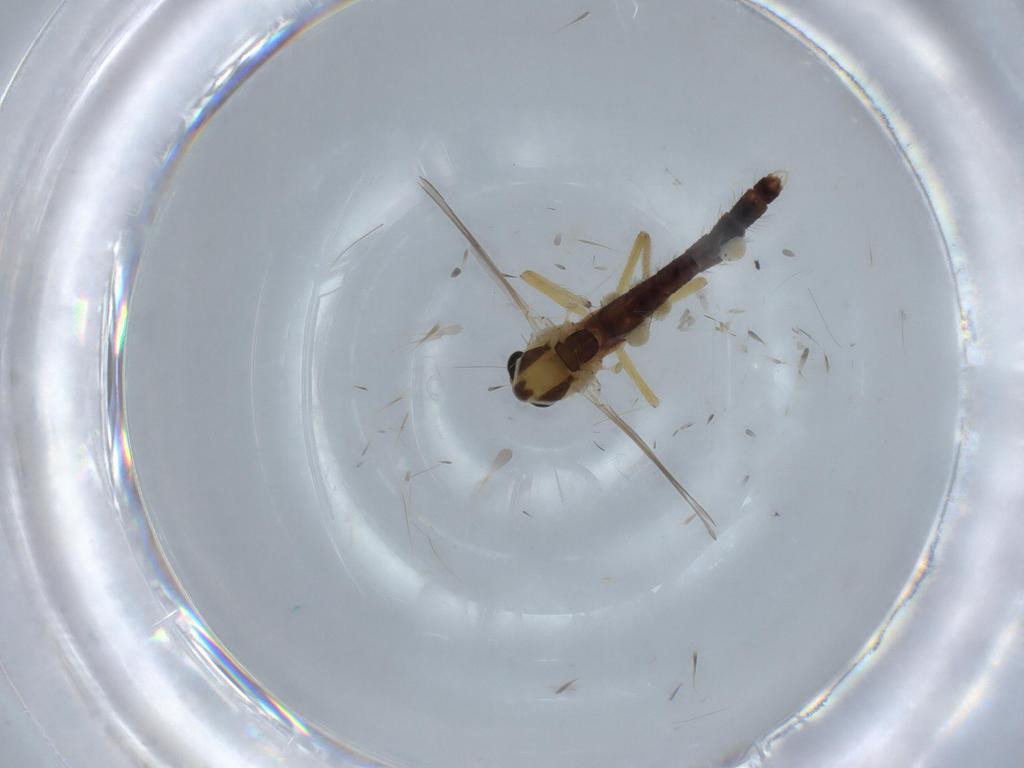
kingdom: Animalia
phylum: Arthropoda
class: Insecta
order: Diptera
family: Chironomidae
